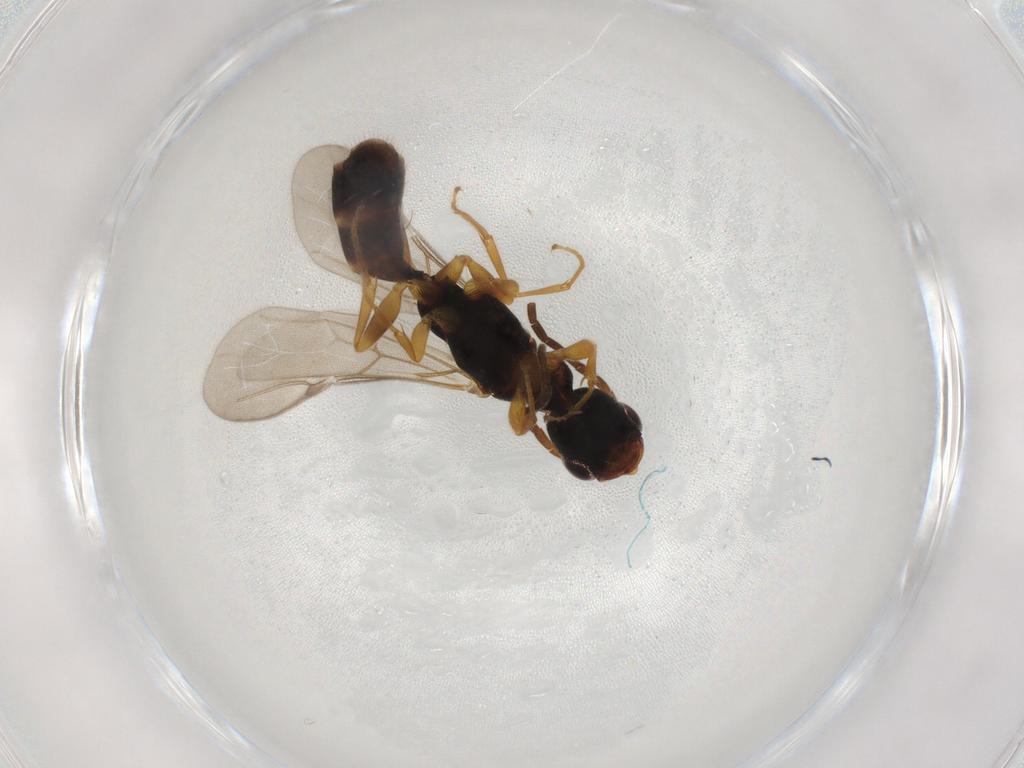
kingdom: Animalia
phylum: Arthropoda
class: Insecta
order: Hymenoptera
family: Bethylidae
